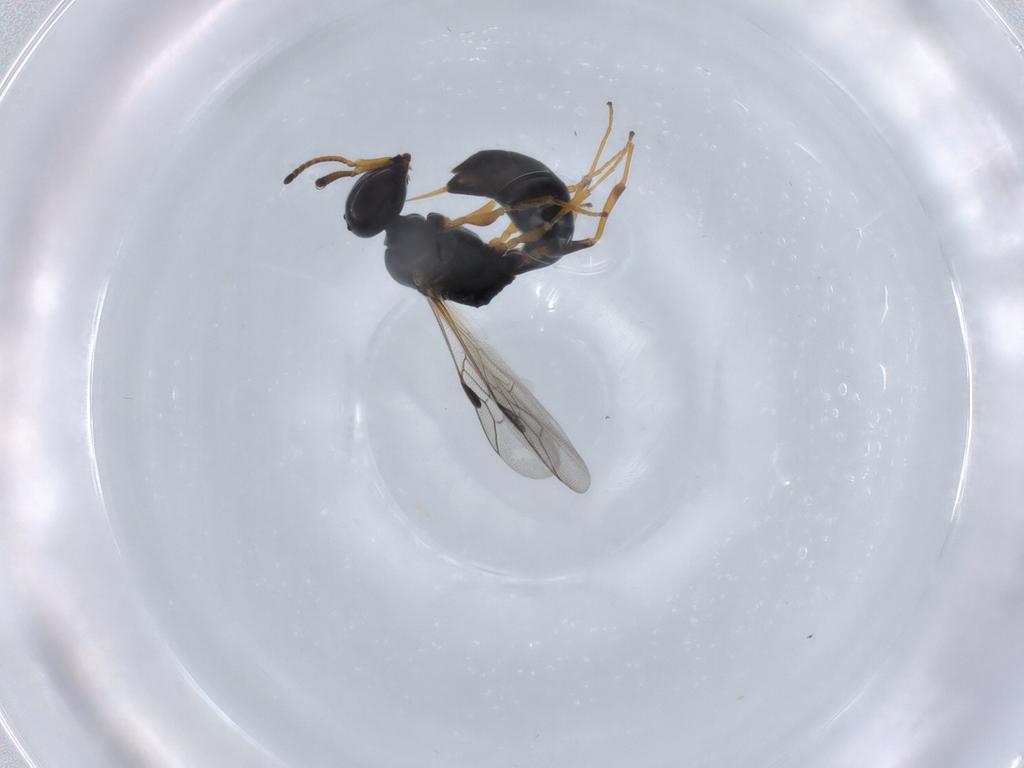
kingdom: Animalia
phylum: Arthropoda
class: Insecta
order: Hymenoptera
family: Pemphredonidae
